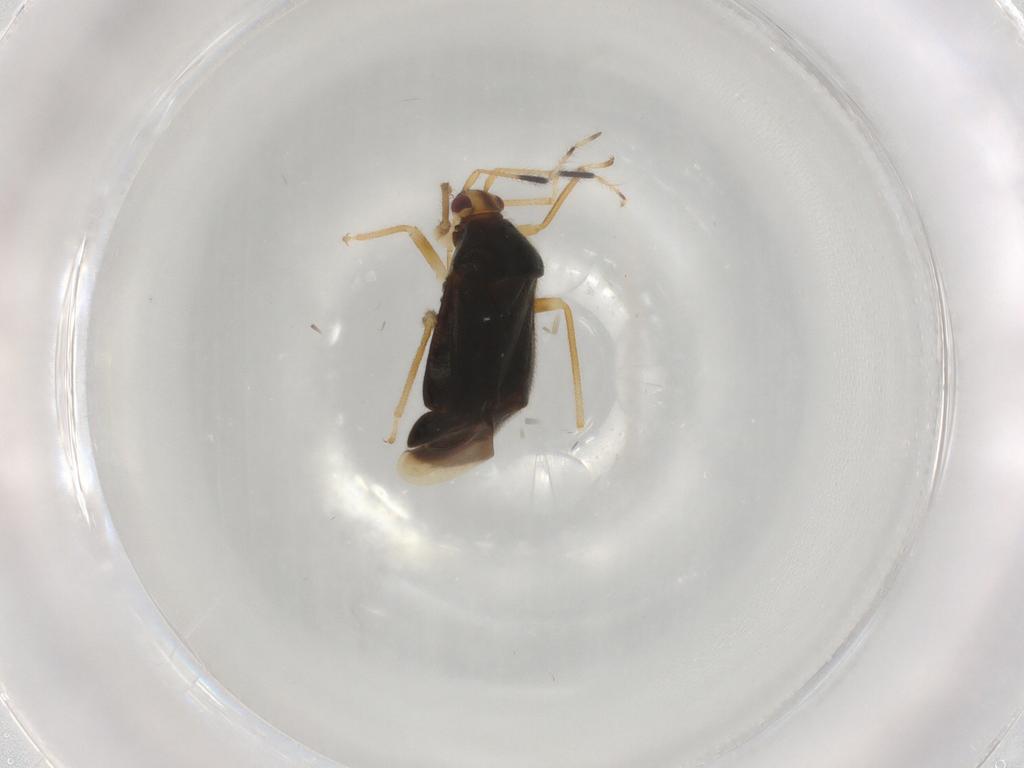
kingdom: Animalia
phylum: Arthropoda
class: Insecta
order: Hemiptera
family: Miridae
